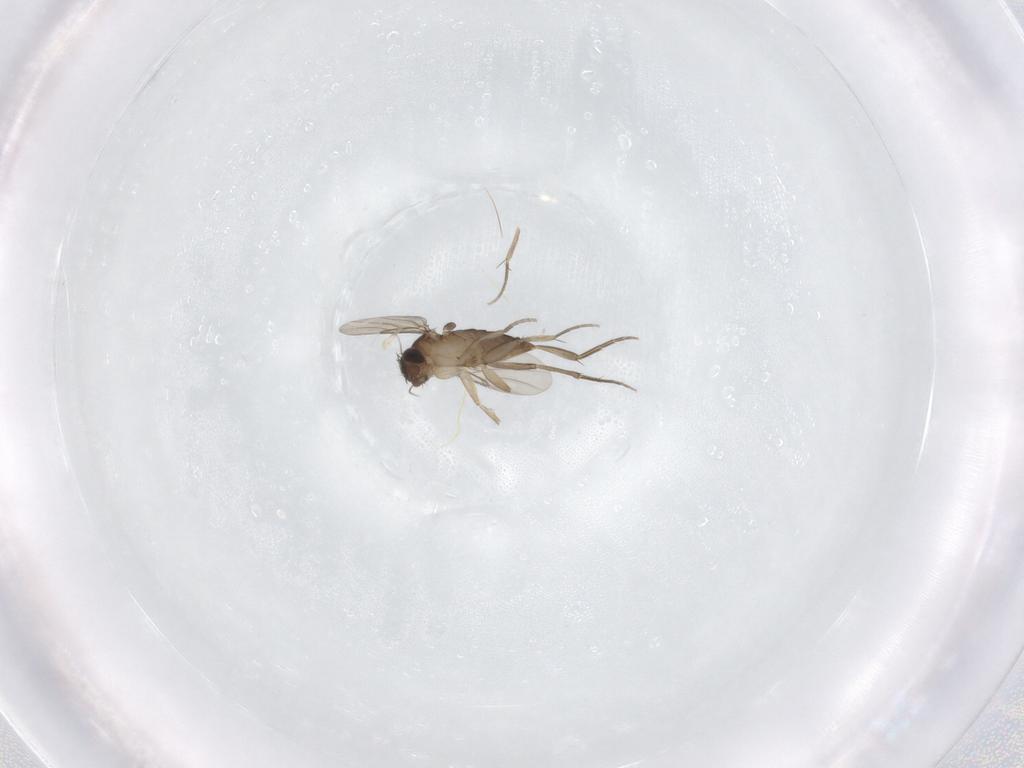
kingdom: Animalia
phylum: Arthropoda
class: Insecta
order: Diptera
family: Phoridae
